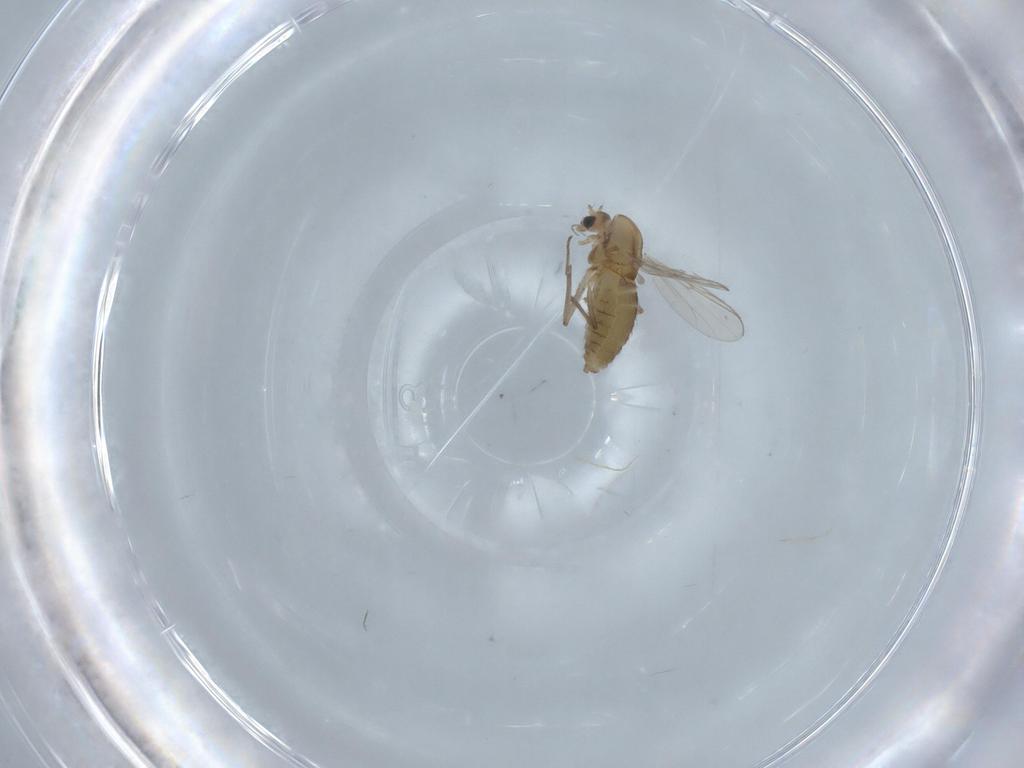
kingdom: Animalia
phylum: Arthropoda
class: Insecta
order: Diptera
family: Chironomidae
